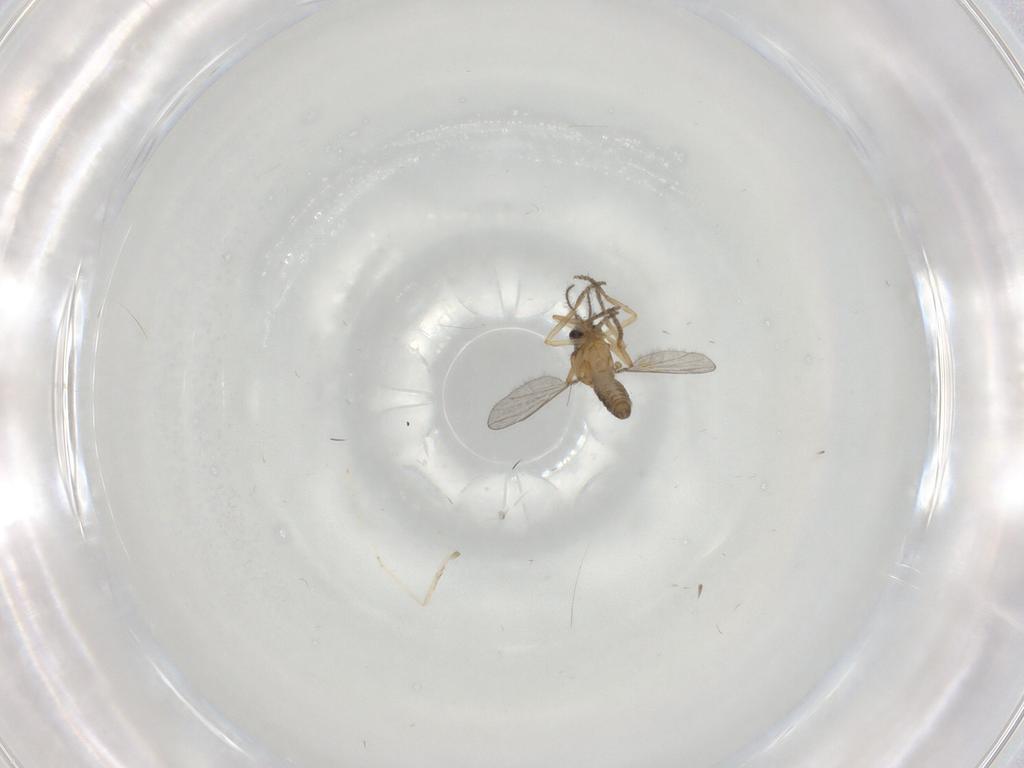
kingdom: Animalia
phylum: Arthropoda
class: Insecta
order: Diptera
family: Ceratopogonidae
